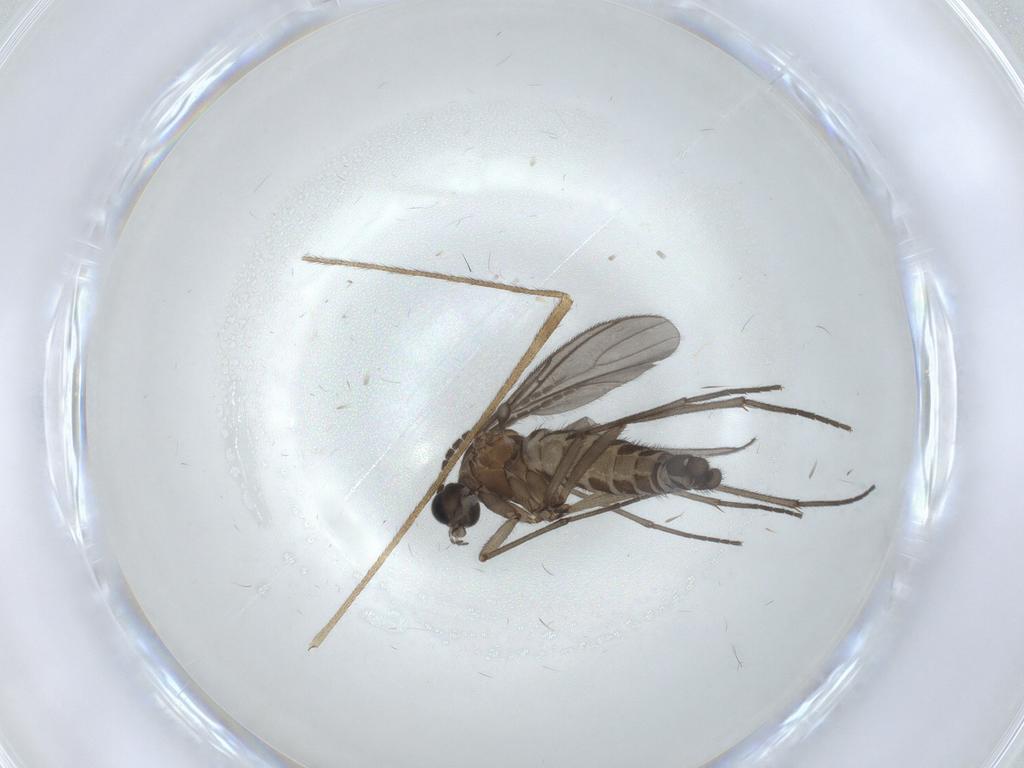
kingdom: Animalia
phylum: Arthropoda
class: Insecta
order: Diptera
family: Sciaridae
